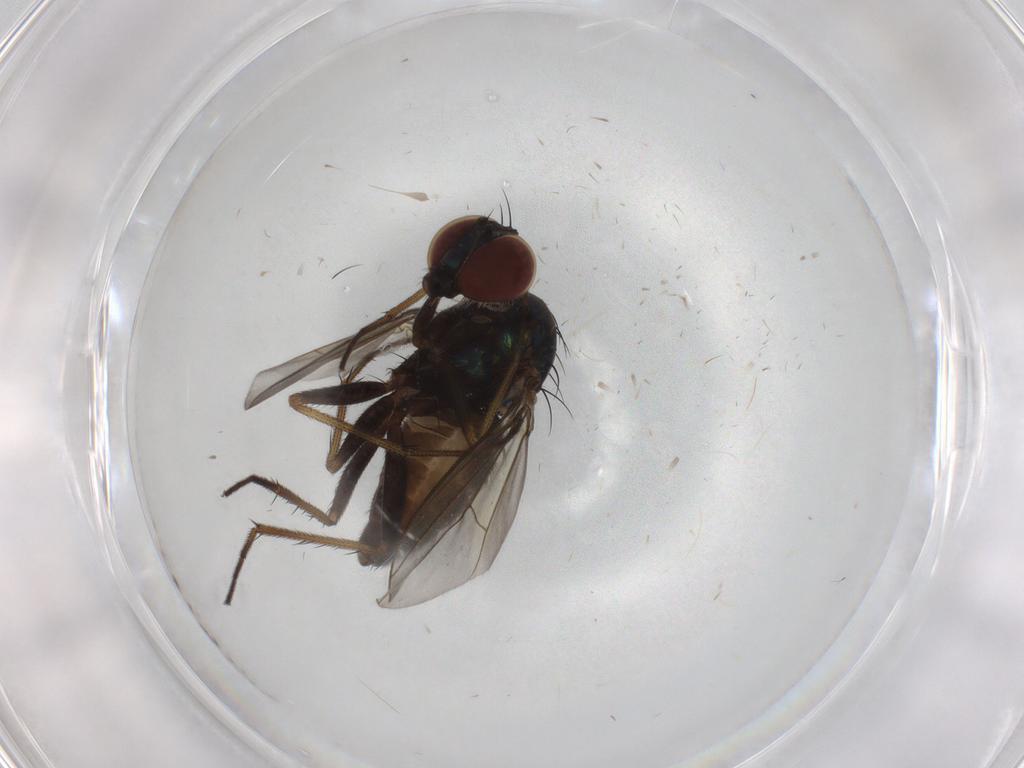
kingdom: Animalia
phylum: Arthropoda
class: Insecta
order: Diptera
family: Dolichopodidae
